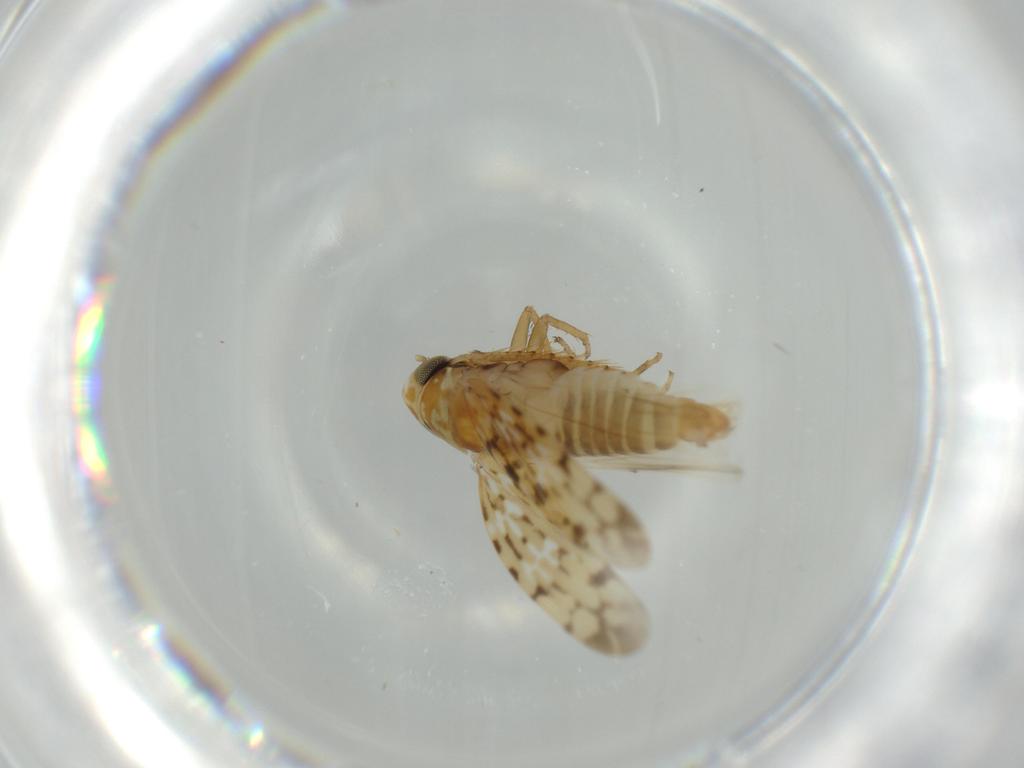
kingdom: Animalia
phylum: Arthropoda
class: Insecta
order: Hemiptera
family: Cicadellidae
